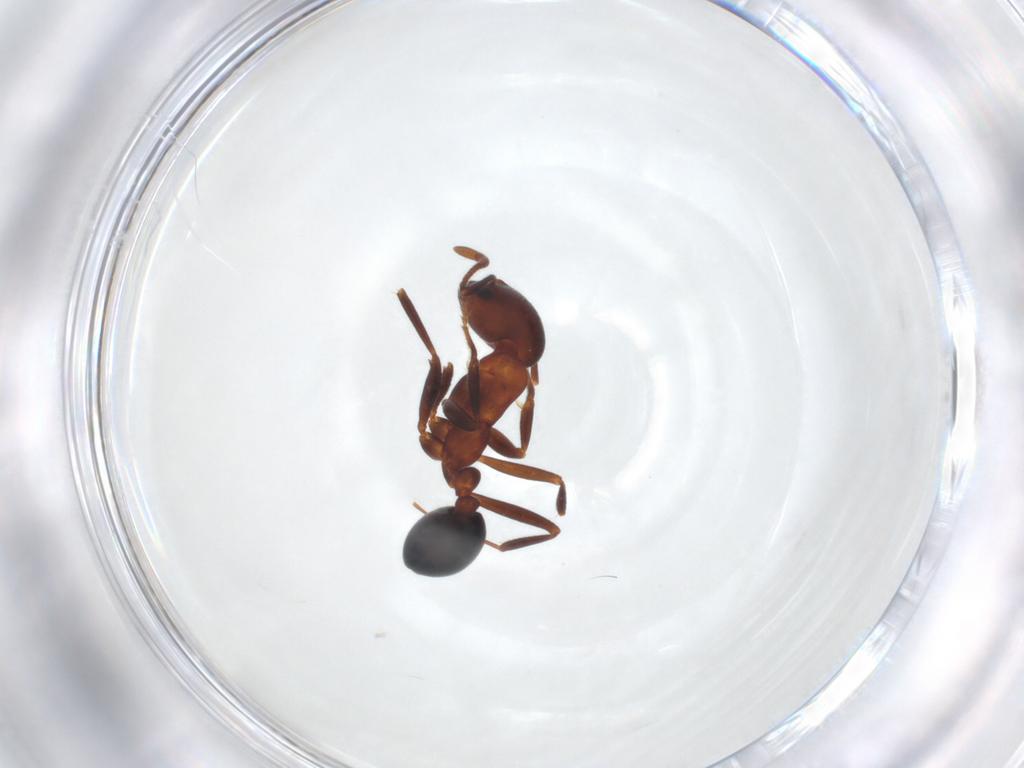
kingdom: Animalia
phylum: Arthropoda
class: Insecta
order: Hymenoptera
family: Formicidae
